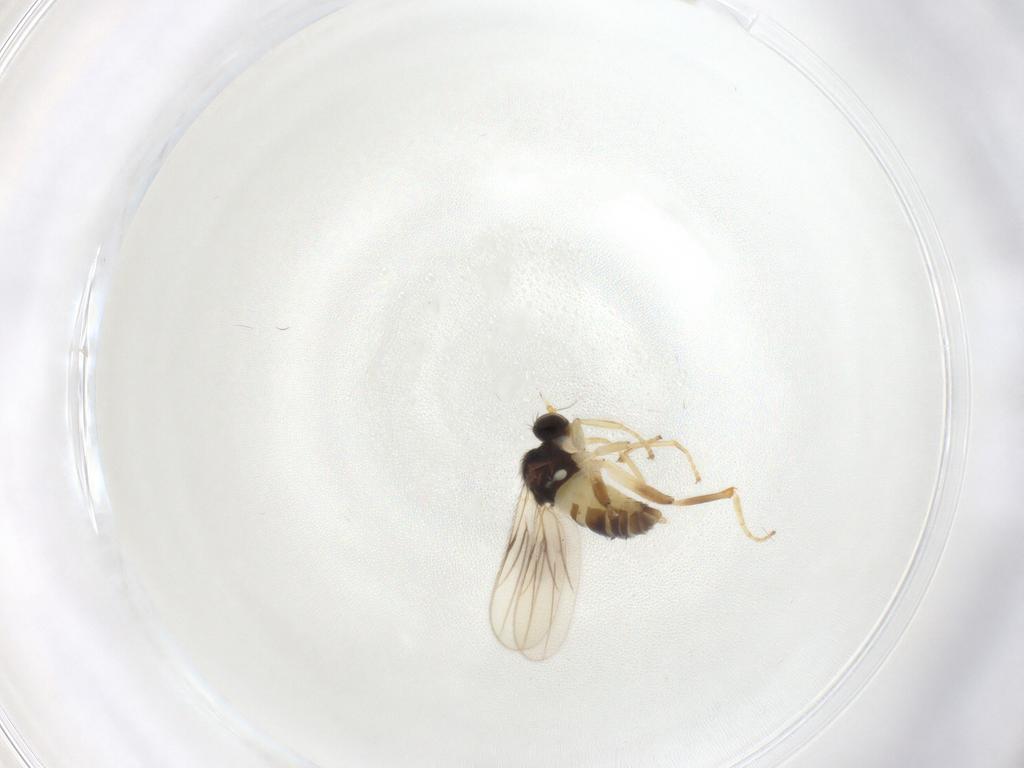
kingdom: Animalia
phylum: Arthropoda
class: Insecta
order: Diptera
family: Hybotidae
